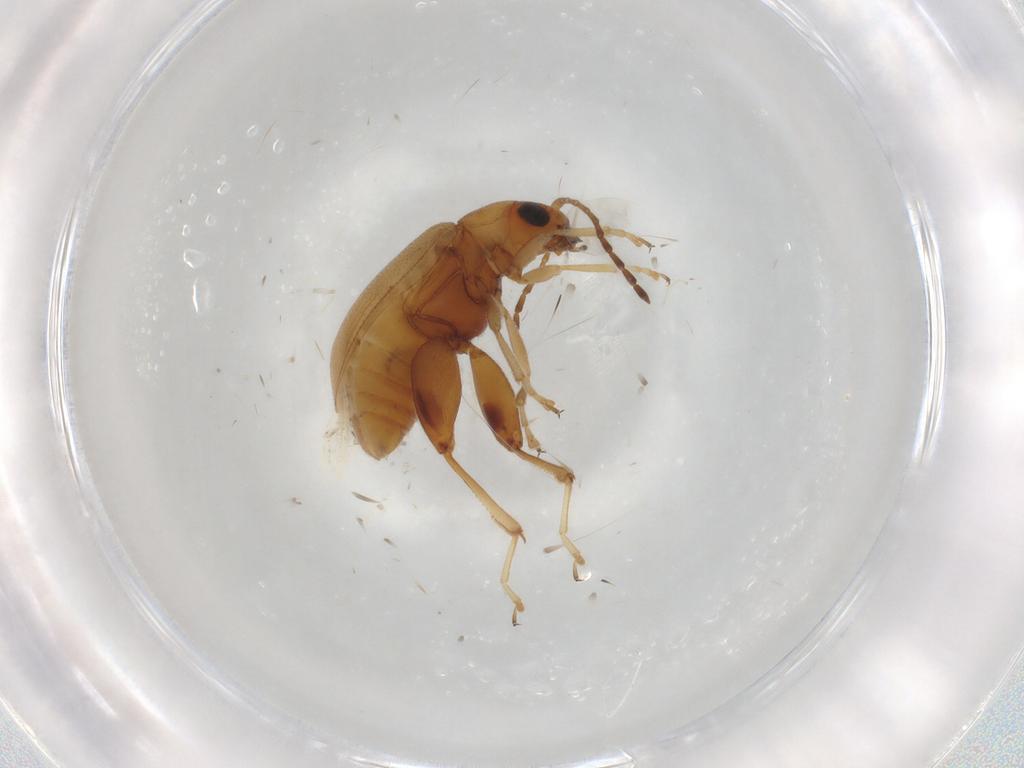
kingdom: Animalia
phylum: Arthropoda
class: Insecta
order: Coleoptera
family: Chrysomelidae
